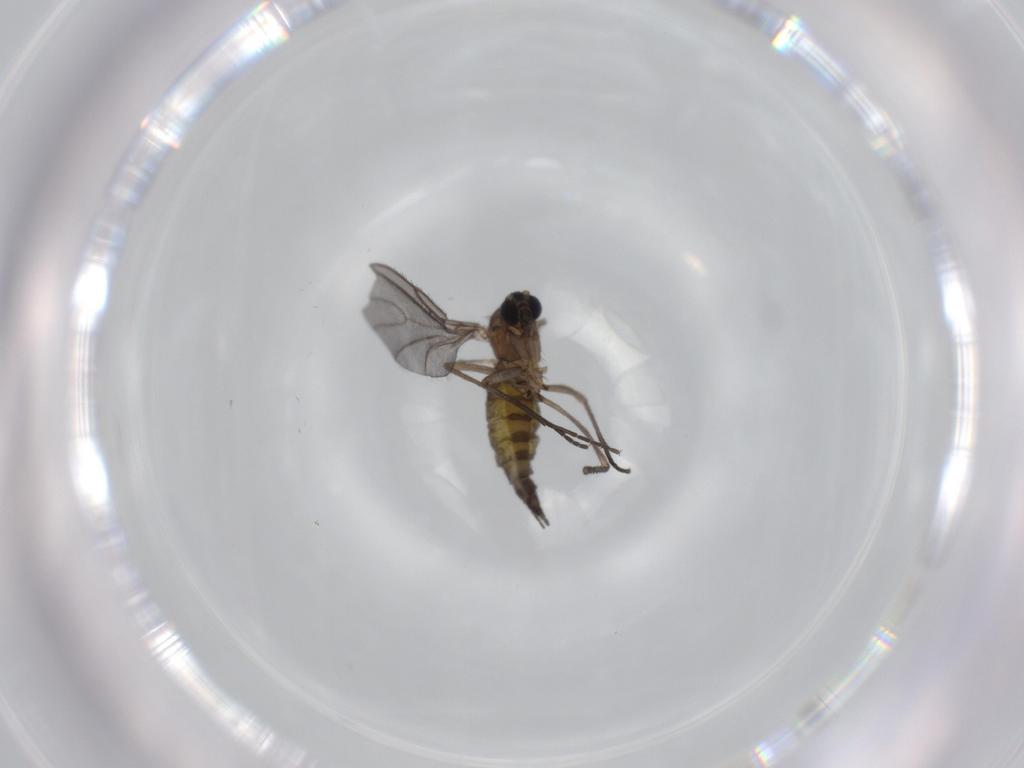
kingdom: Animalia
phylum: Arthropoda
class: Insecta
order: Diptera
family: Sciaridae
